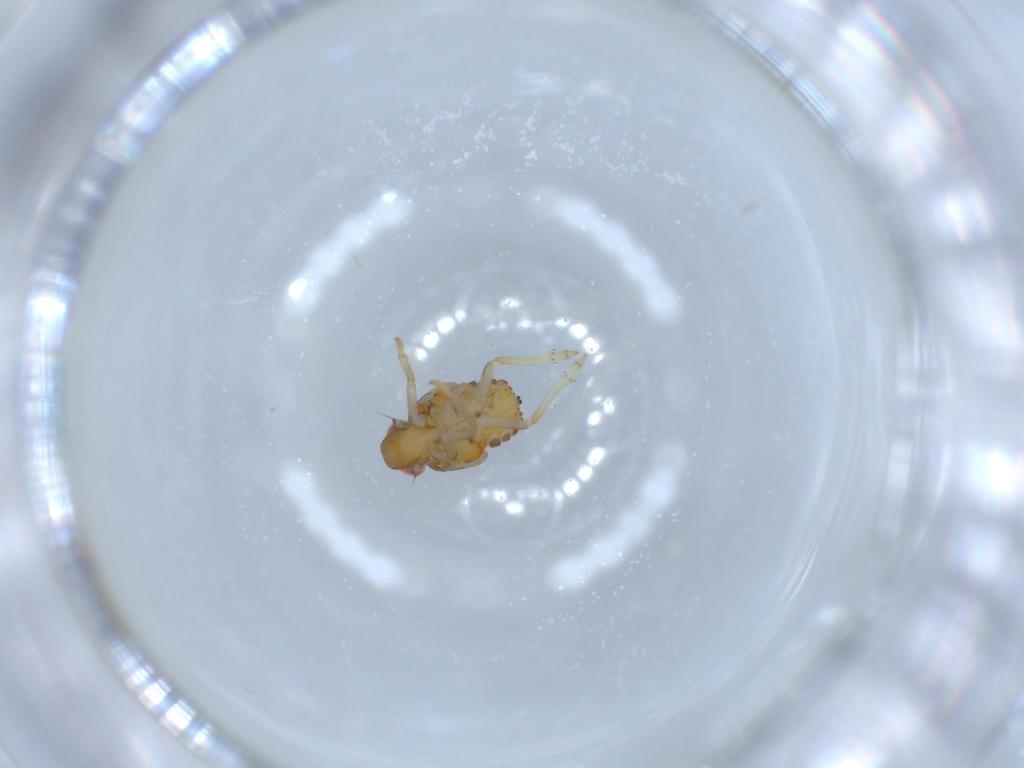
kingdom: Animalia
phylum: Arthropoda
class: Insecta
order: Hemiptera
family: Issidae
